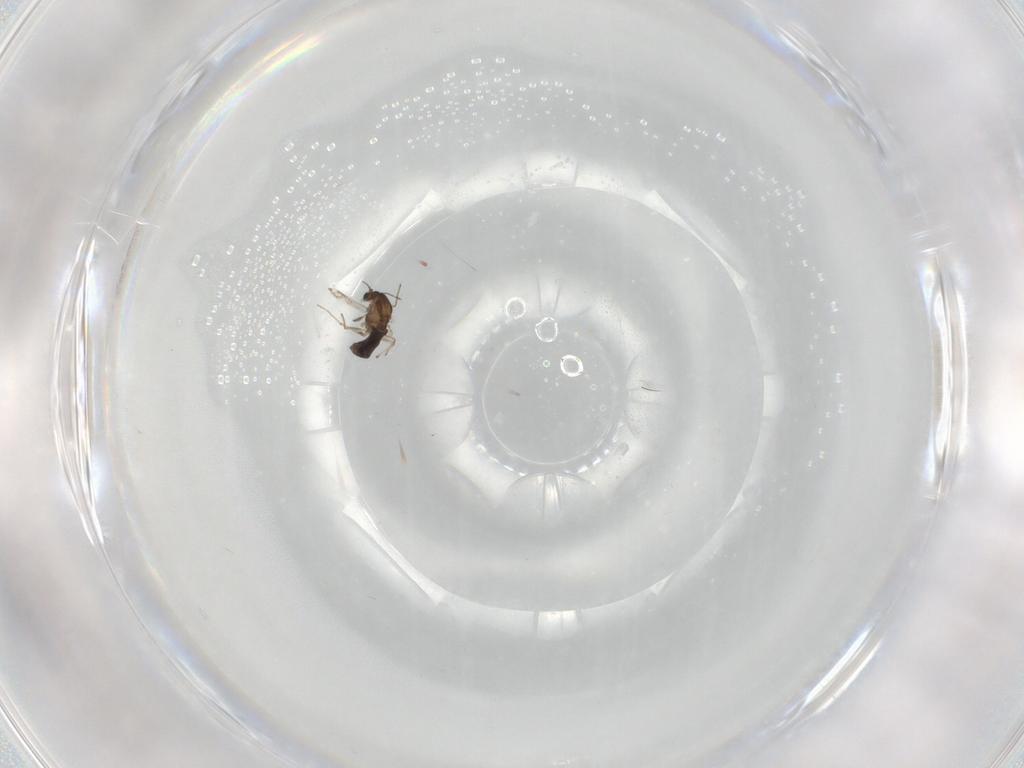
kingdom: Animalia
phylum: Arthropoda
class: Insecta
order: Diptera
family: Chironomidae
